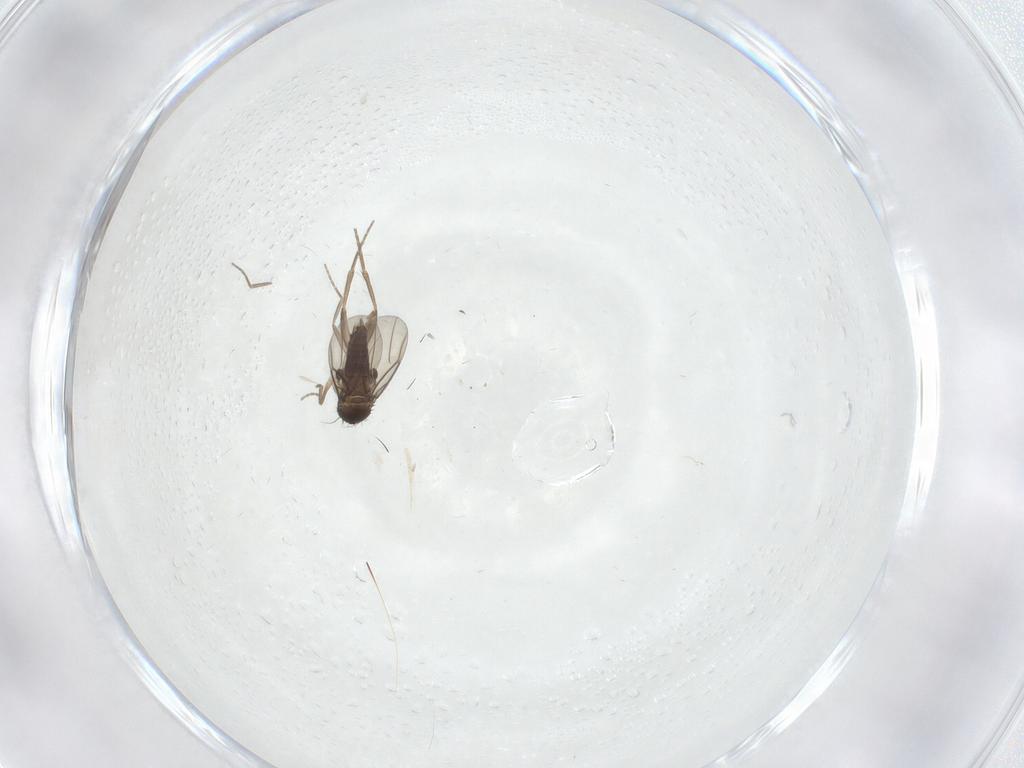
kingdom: Animalia
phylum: Arthropoda
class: Insecta
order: Diptera
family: Phoridae
